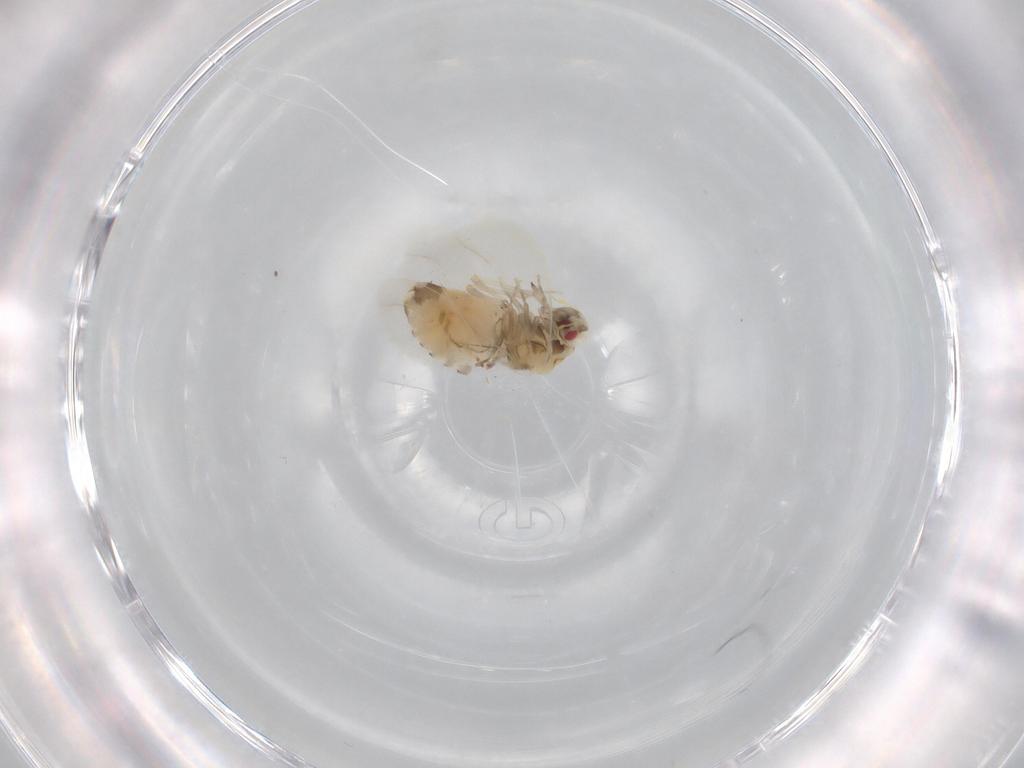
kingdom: Animalia
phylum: Arthropoda
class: Insecta
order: Hemiptera
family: Aleyrodidae
